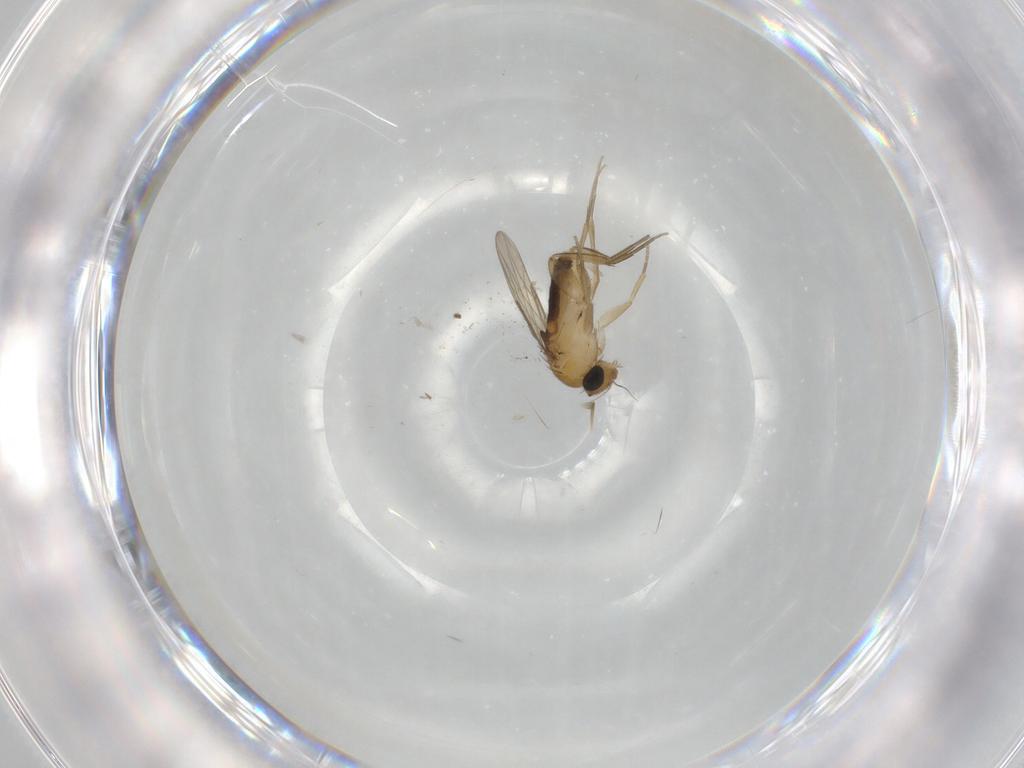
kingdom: Animalia
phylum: Arthropoda
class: Insecta
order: Diptera
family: Phoridae
